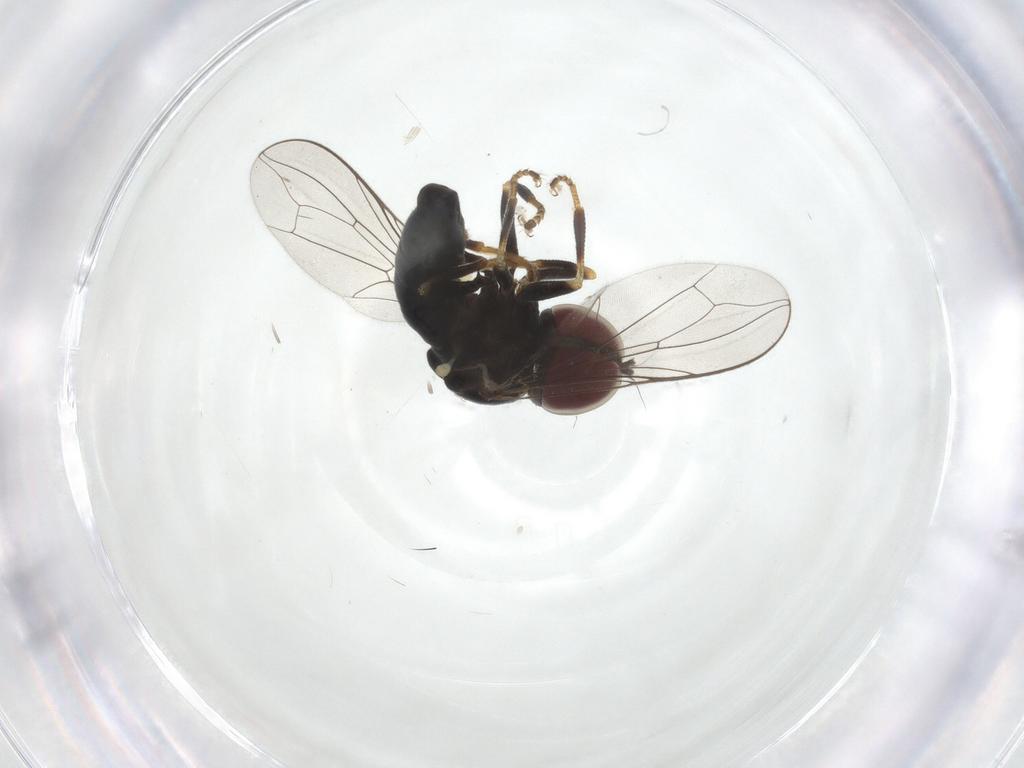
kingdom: Animalia
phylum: Arthropoda
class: Insecta
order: Diptera
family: Pipunculidae
